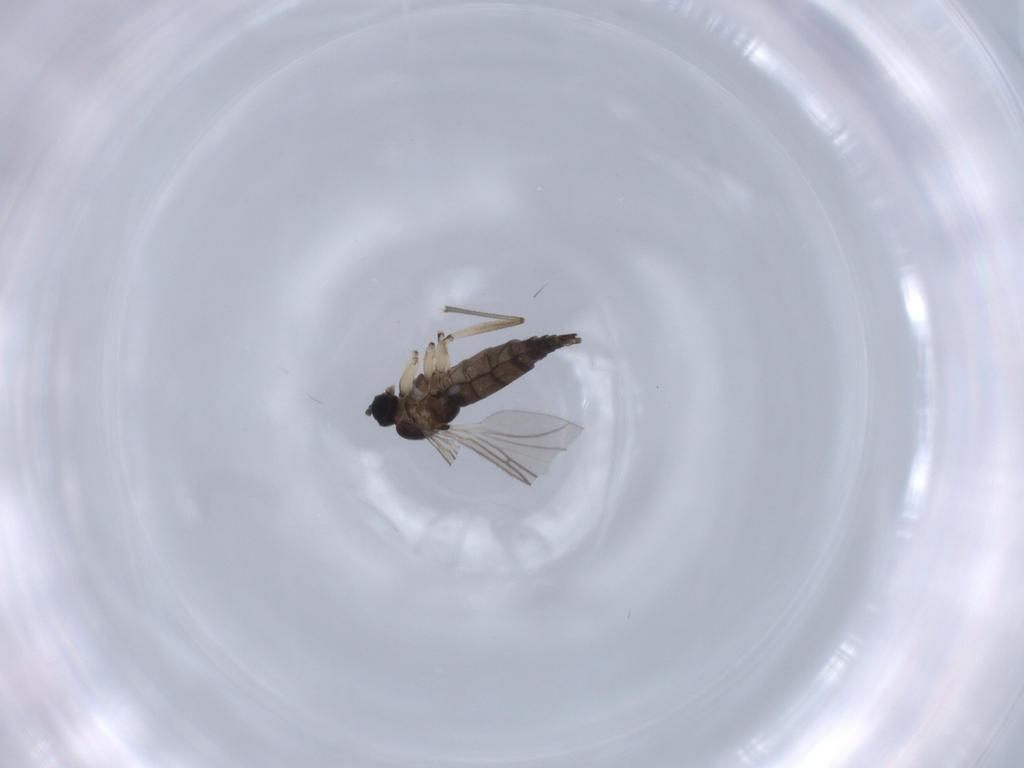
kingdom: Animalia
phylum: Arthropoda
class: Insecta
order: Diptera
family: Sciaridae
